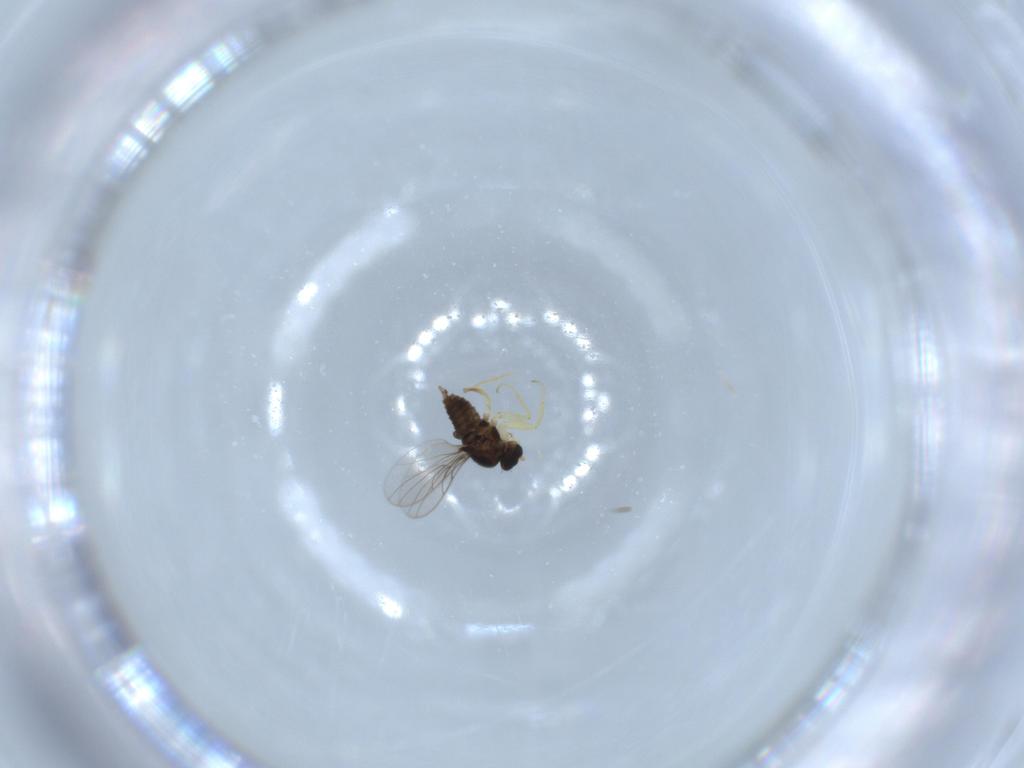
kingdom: Animalia
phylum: Arthropoda
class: Insecta
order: Diptera
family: Hybotidae
